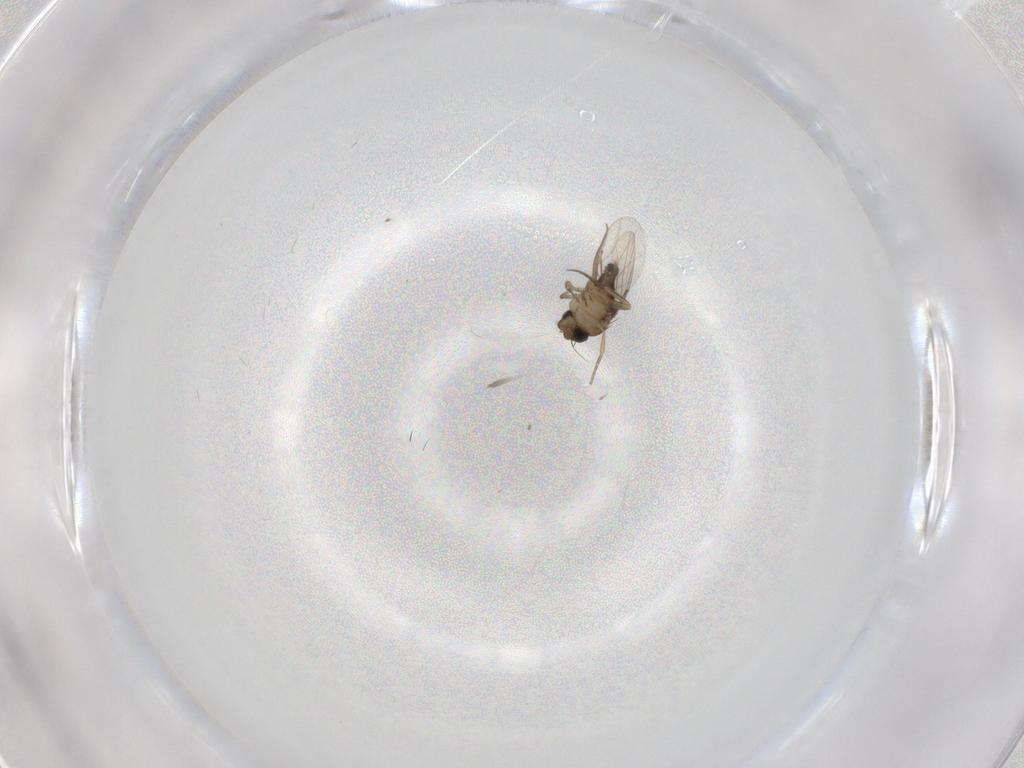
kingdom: Animalia
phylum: Arthropoda
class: Insecta
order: Diptera
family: Phoridae
